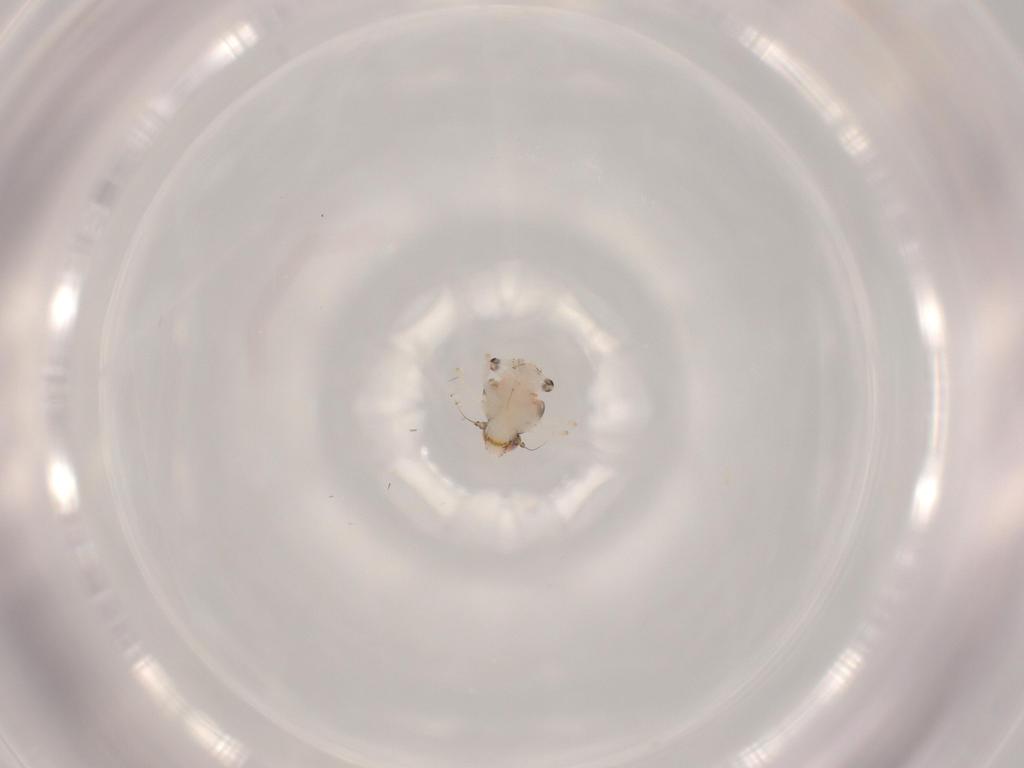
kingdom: Animalia
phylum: Arthropoda
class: Insecta
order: Hemiptera
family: Nogodinidae
